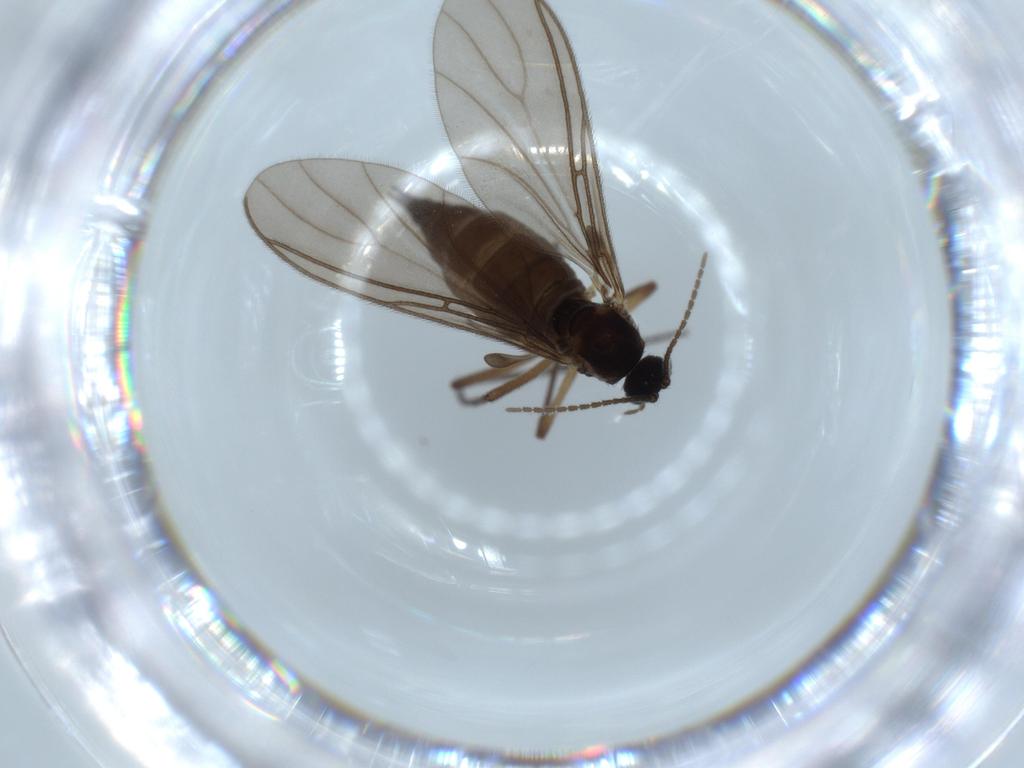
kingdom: Animalia
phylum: Arthropoda
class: Insecta
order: Diptera
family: Sciaridae
